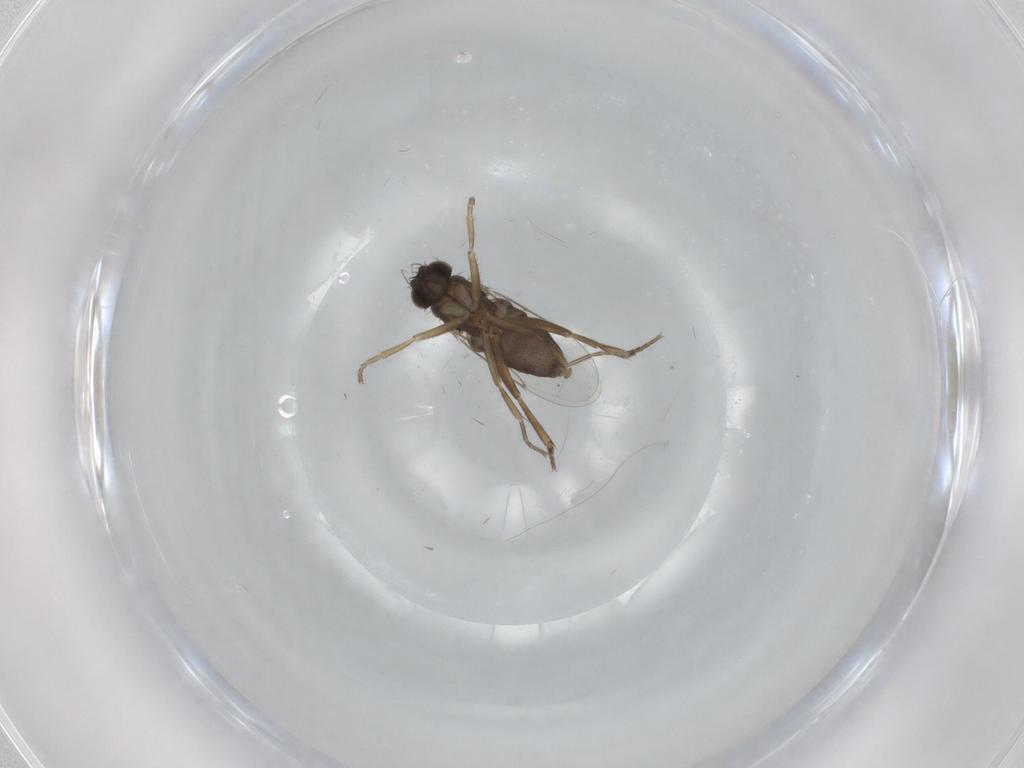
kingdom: Animalia
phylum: Arthropoda
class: Insecta
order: Diptera
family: Phoridae
